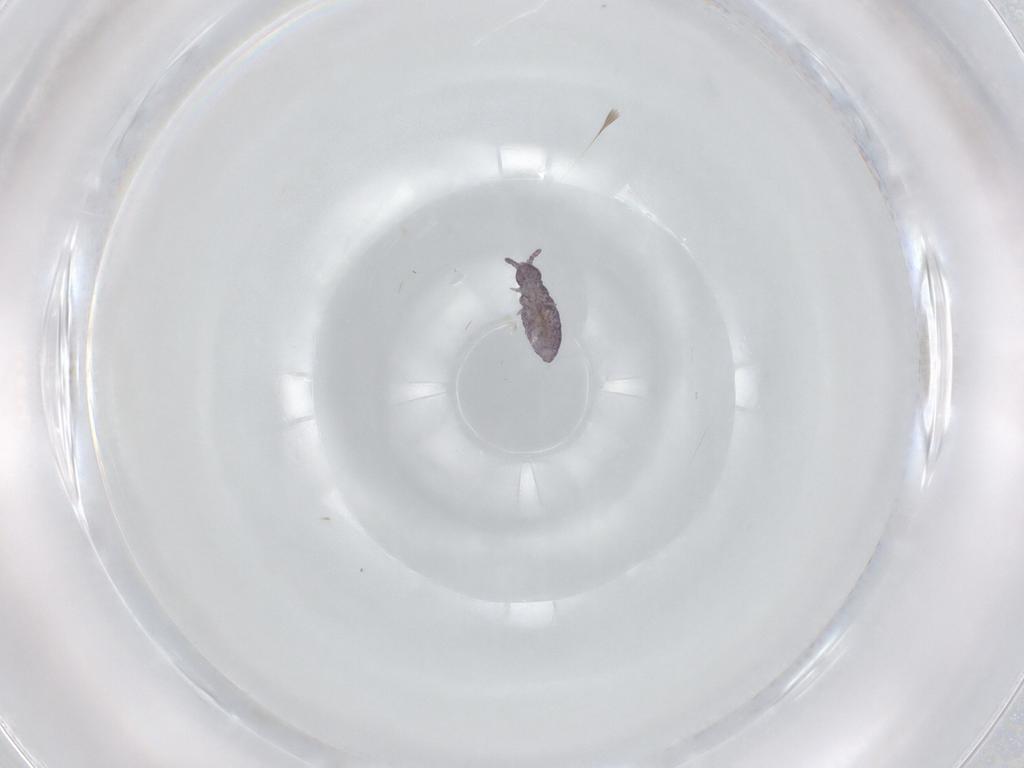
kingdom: Animalia
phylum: Arthropoda
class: Collembola
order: Poduromorpha
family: Brachystomellidae
